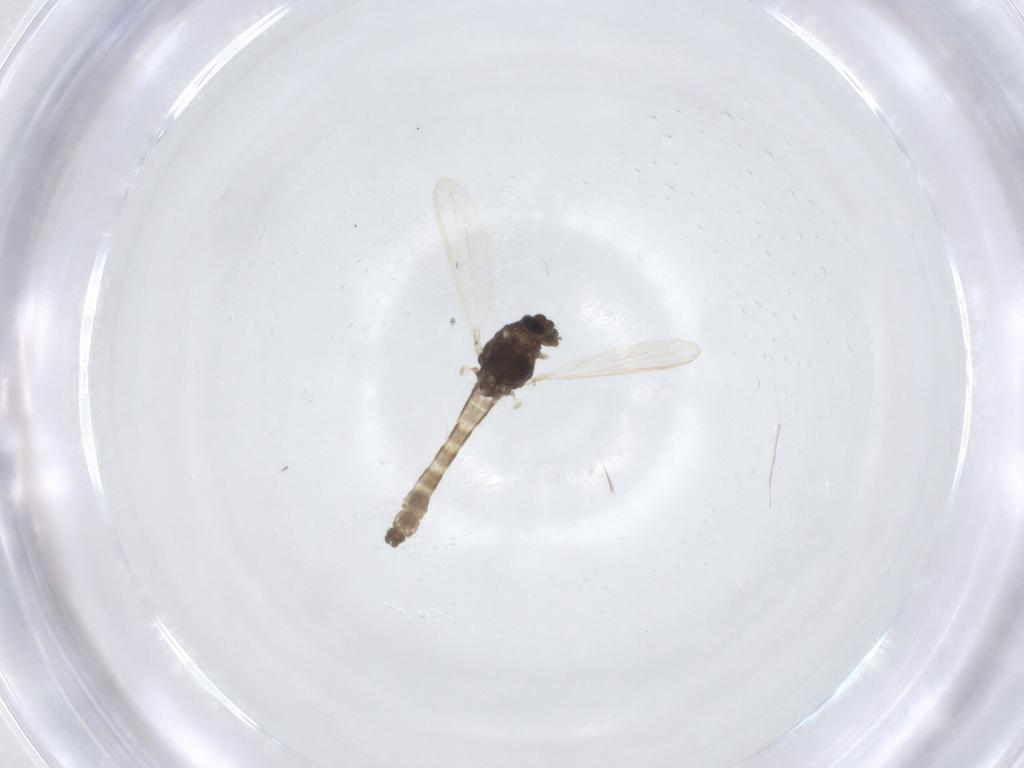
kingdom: Animalia
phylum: Arthropoda
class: Insecta
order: Diptera
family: Chironomidae
